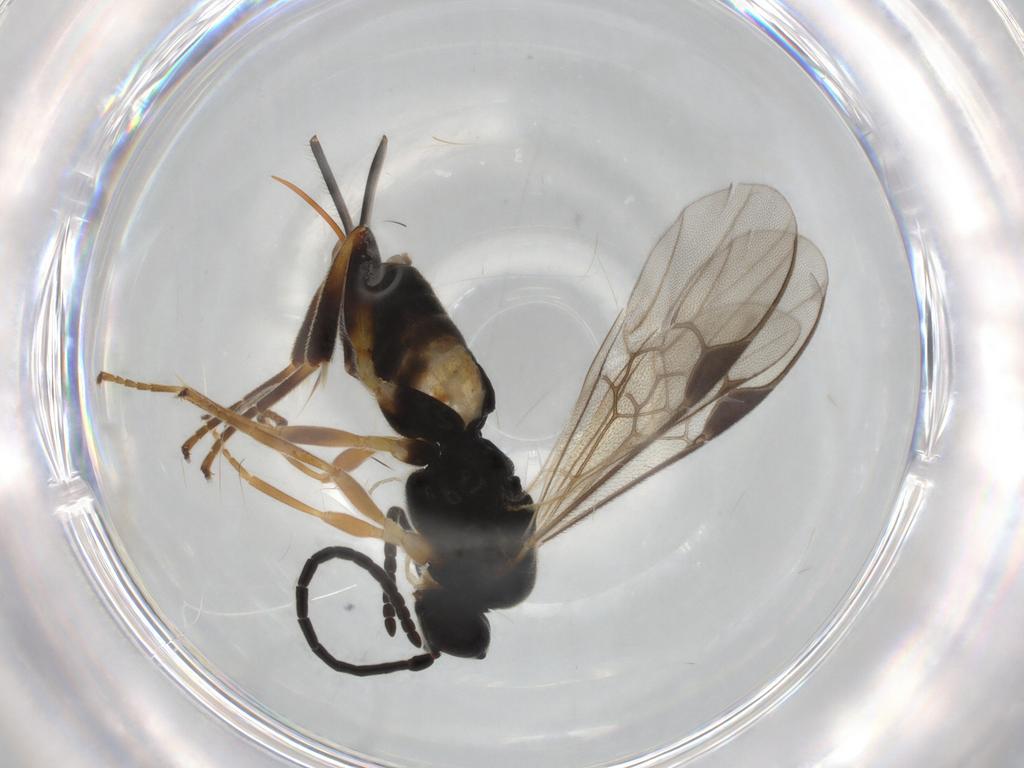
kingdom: Animalia
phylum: Arthropoda
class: Insecta
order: Hymenoptera
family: Braconidae
